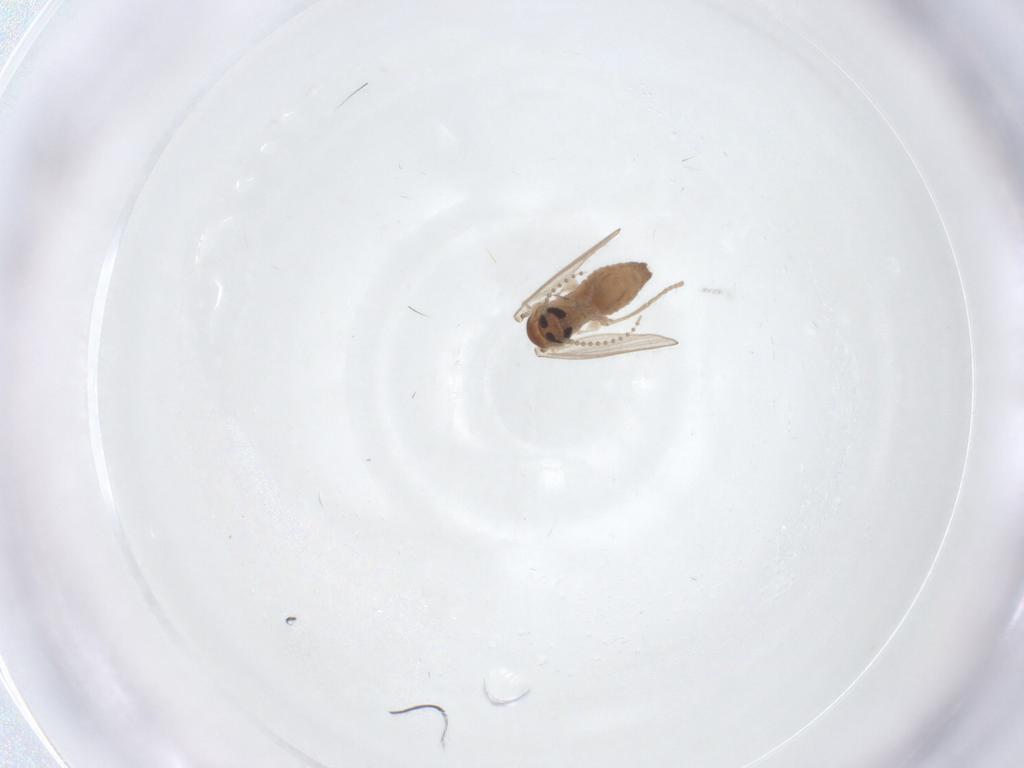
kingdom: Animalia
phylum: Arthropoda
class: Insecta
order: Diptera
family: Psychodidae
